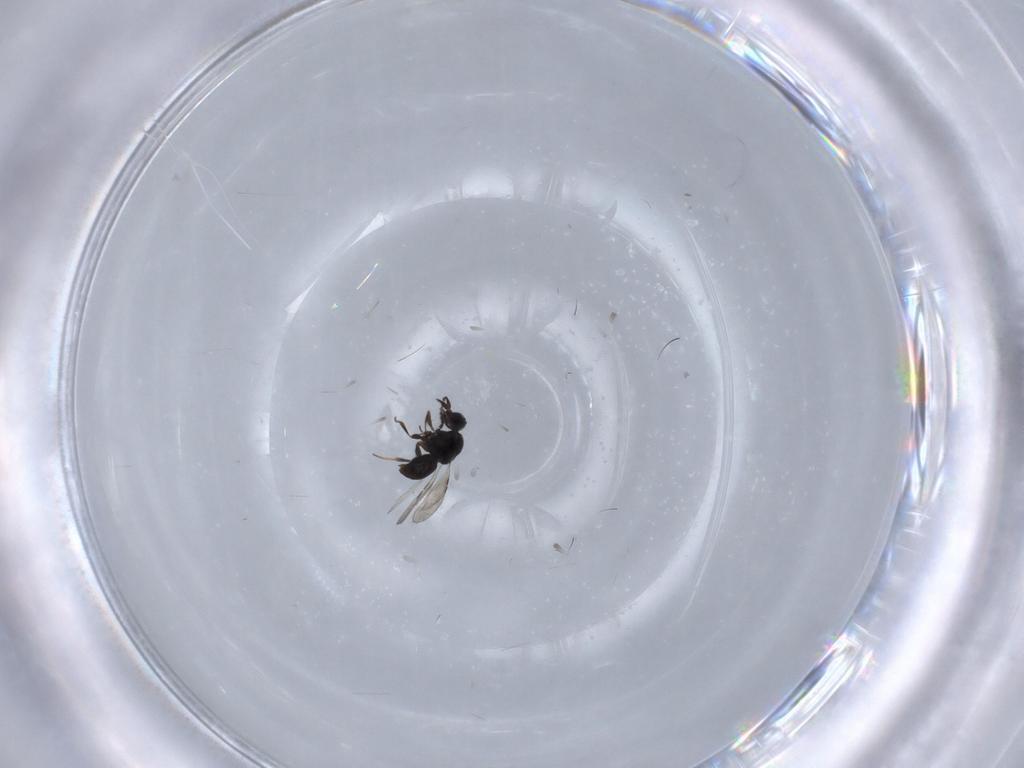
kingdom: Animalia
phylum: Arthropoda
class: Insecta
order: Hymenoptera
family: Ceraphronidae
